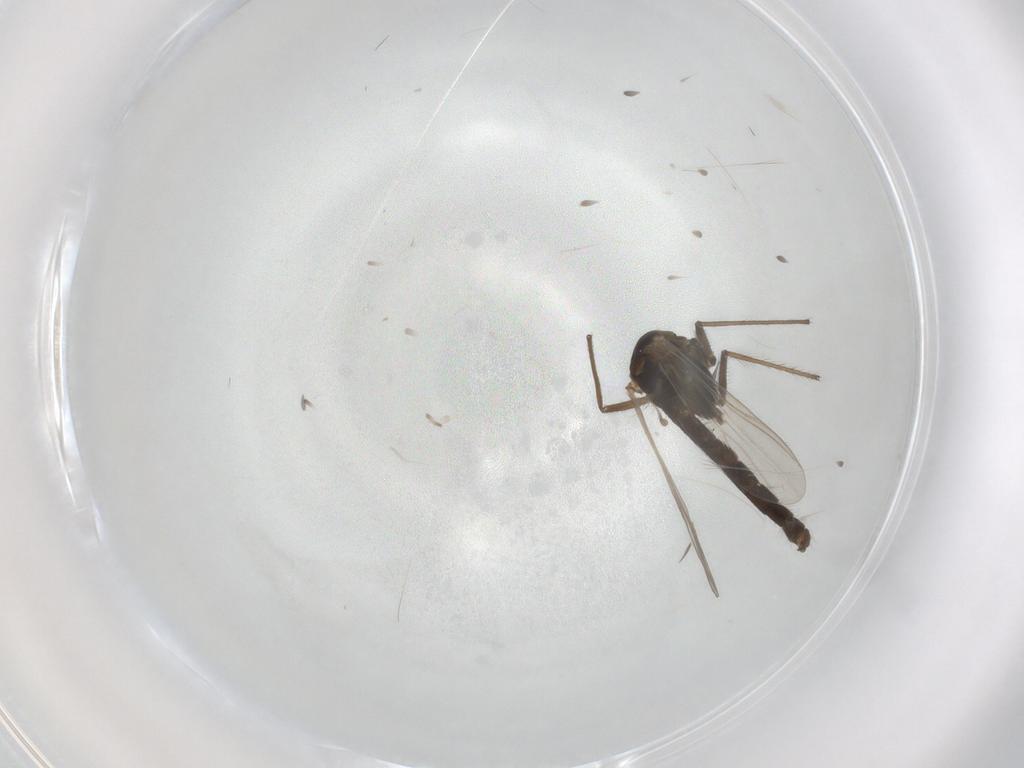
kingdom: Animalia
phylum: Arthropoda
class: Insecta
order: Diptera
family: Chironomidae
